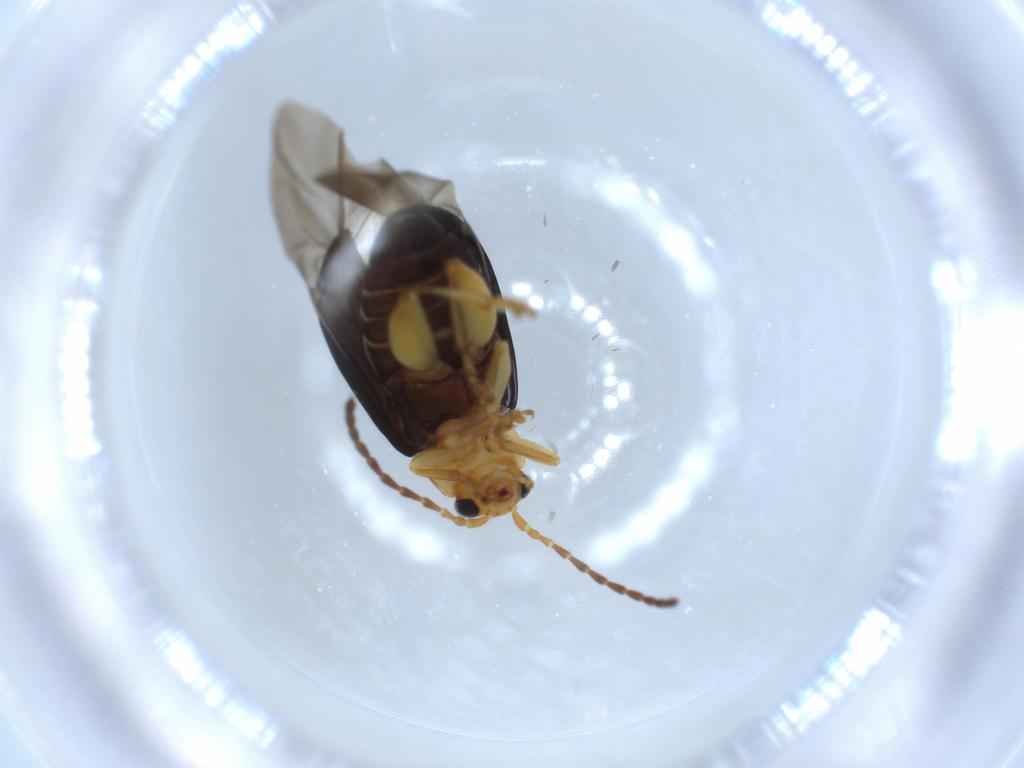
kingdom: Animalia
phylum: Arthropoda
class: Insecta
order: Coleoptera
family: Chrysomelidae
